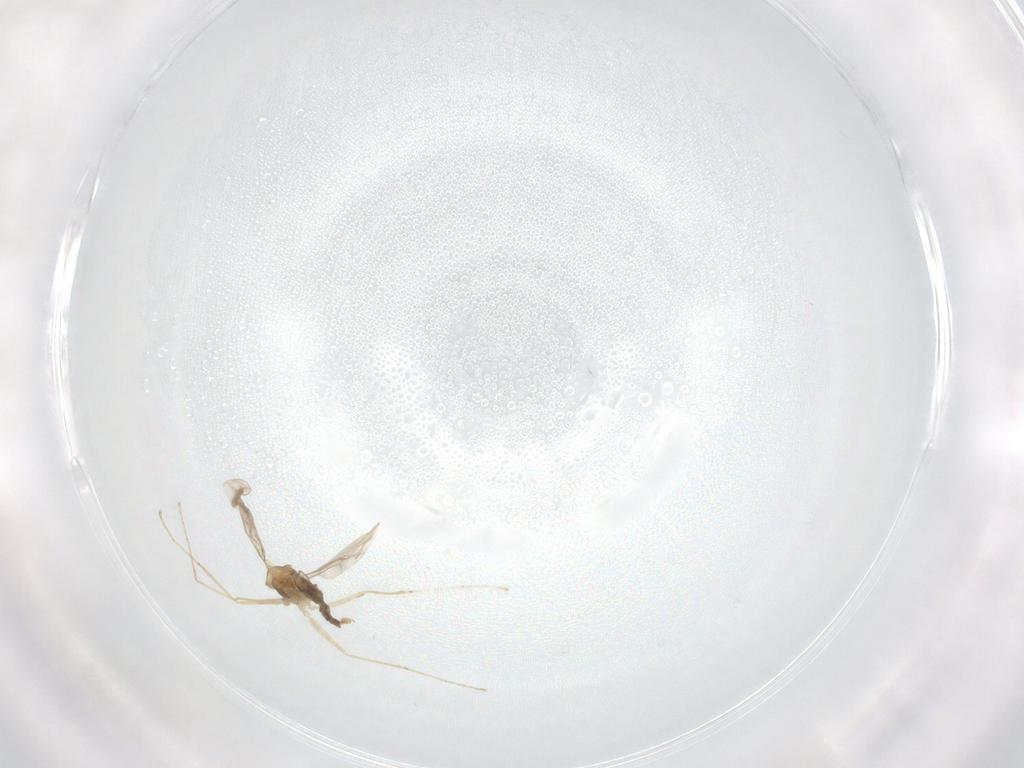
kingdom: Animalia
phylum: Arthropoda
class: Insecta
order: Diptera
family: Cecidomyiidae
